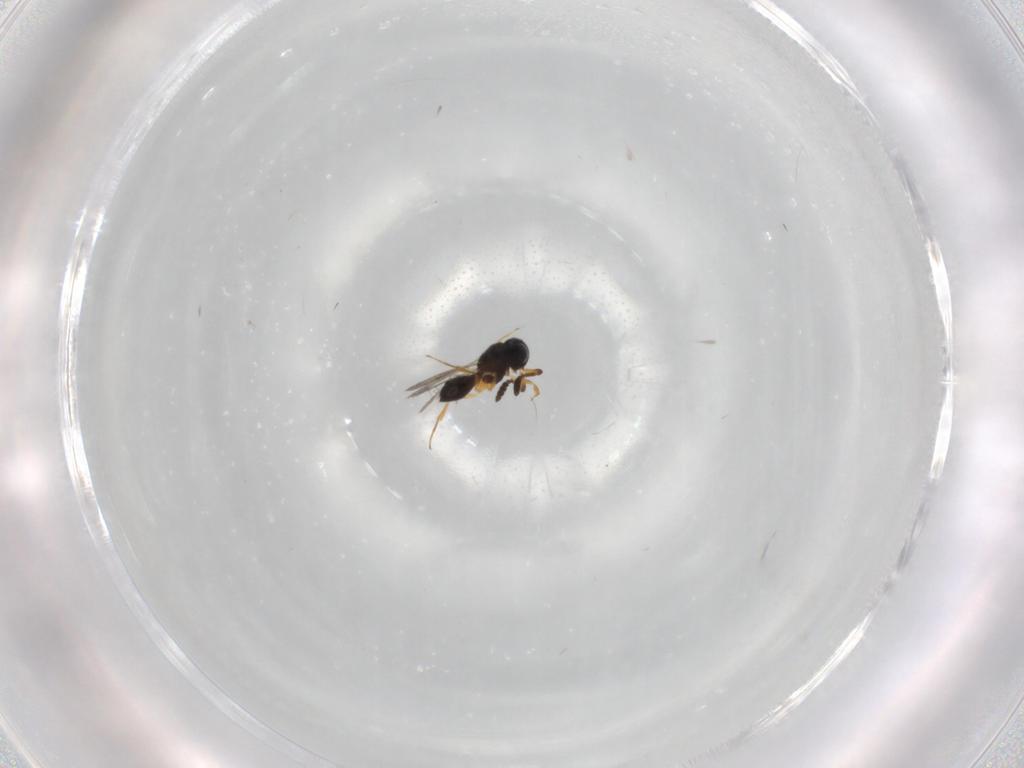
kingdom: Animalia
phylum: Arthropoda
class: Insecta
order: Hymenoptera
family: Scelionidae
